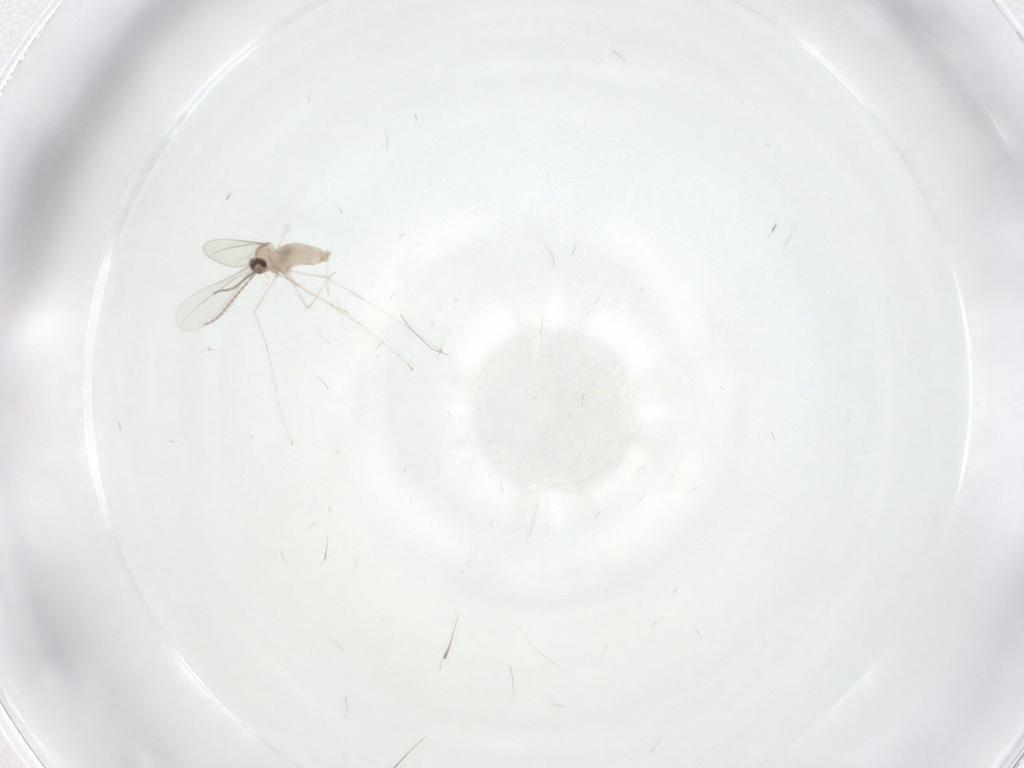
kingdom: Animalia
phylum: Arthropoda
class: Insecta
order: Diptera
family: Cecidomyiidae
